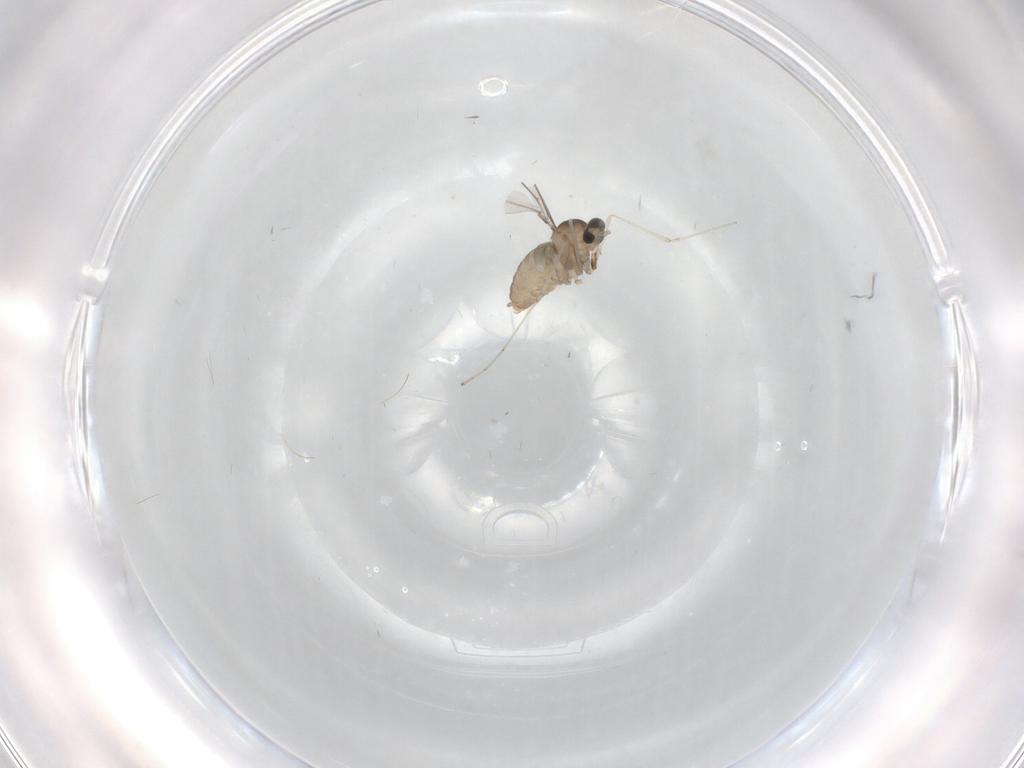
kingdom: Animalia
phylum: Arthropoda
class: Insecta
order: Diptera
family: Cecidomyiidae
